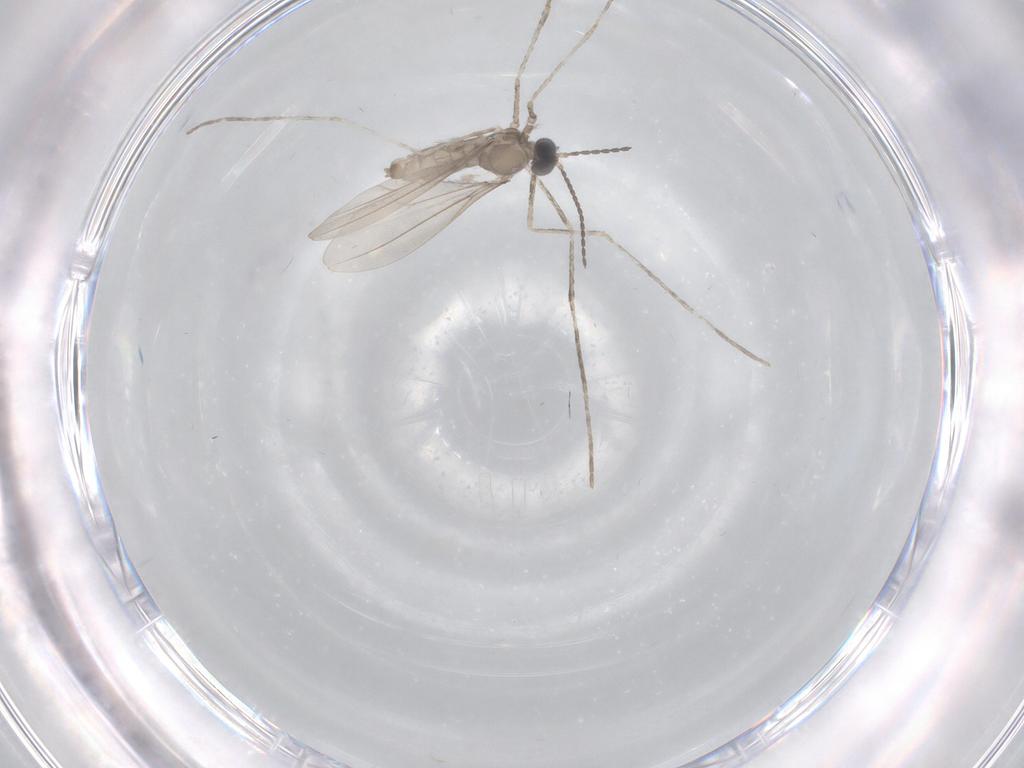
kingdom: Animalia
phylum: Arthropoda
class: Insecta
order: Diptera
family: Cecidomyiidae
